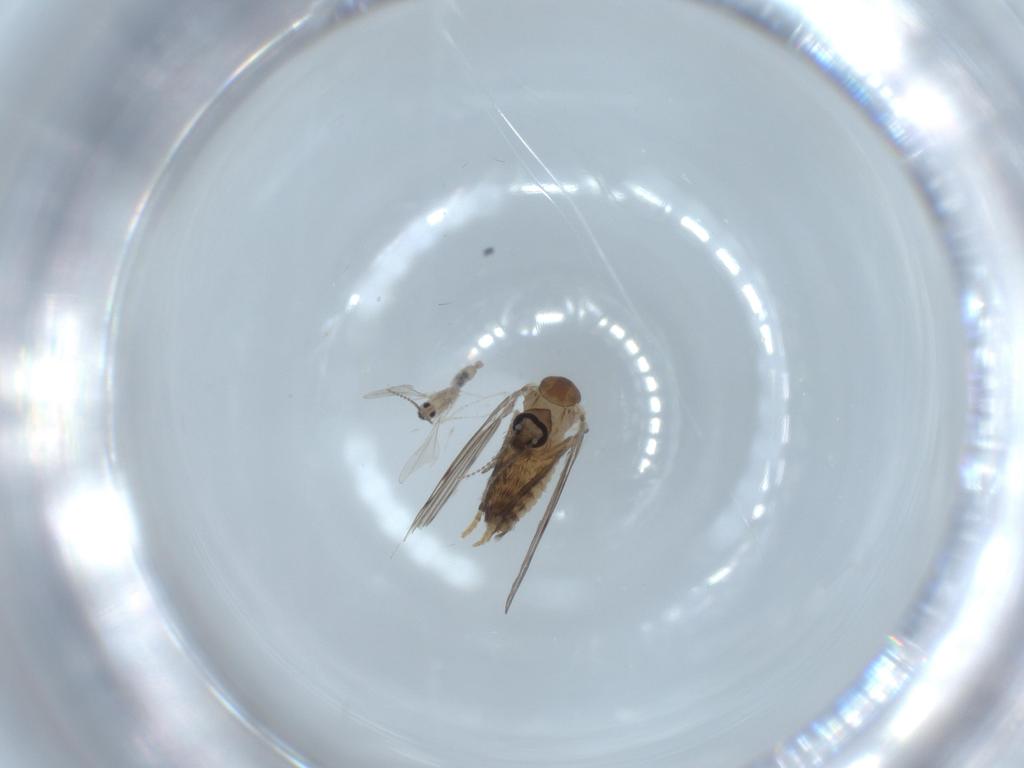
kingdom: Animalia
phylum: Arthropoda
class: Insecta
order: Diptera
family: Psychodidae
